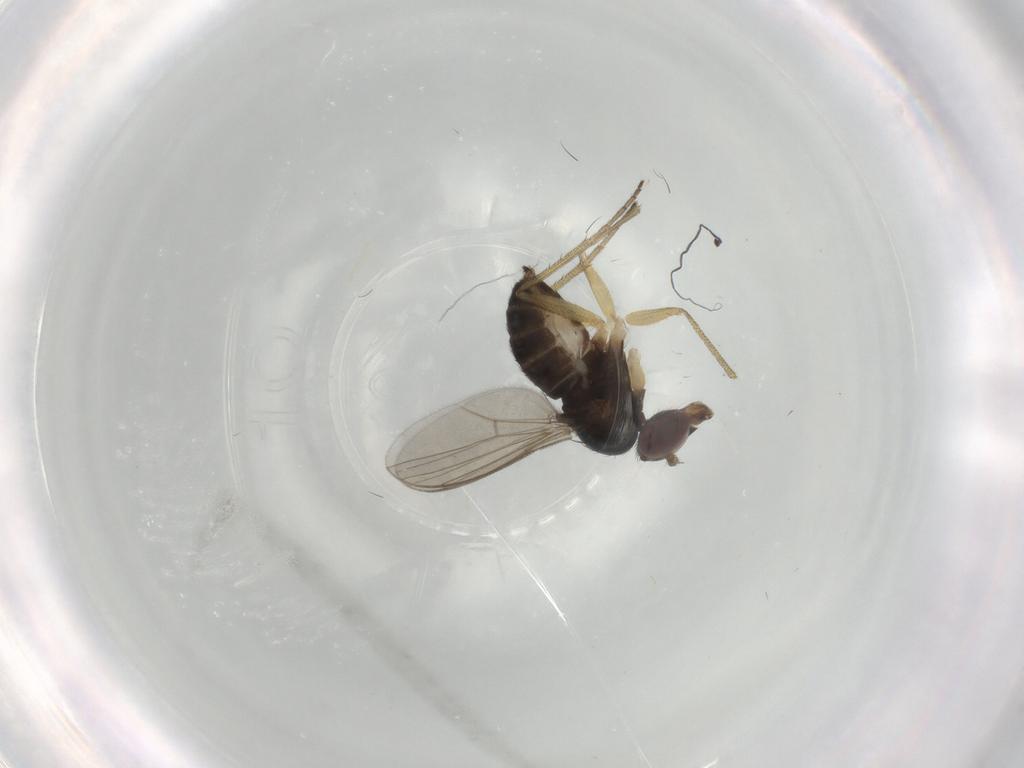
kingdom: Animalia
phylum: Arthropoda
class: Insecta
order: Diptera
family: Dolichopodidae
